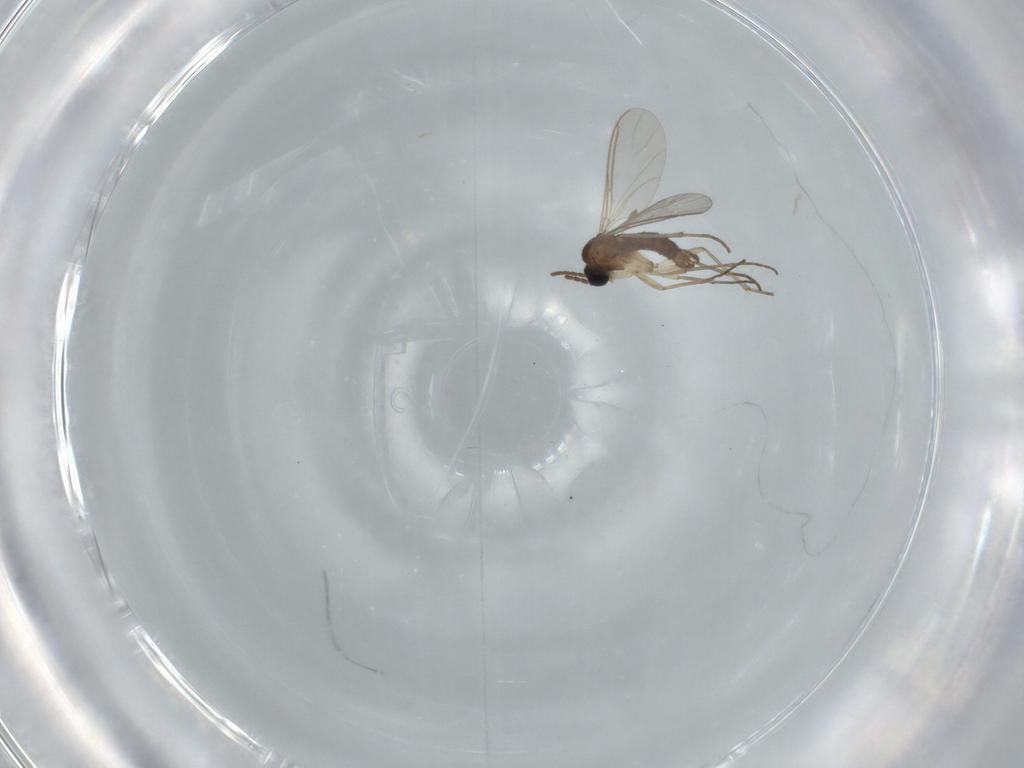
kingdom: Animalia
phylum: Arthropoda
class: Insecta
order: Diptera
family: Sciaridae
